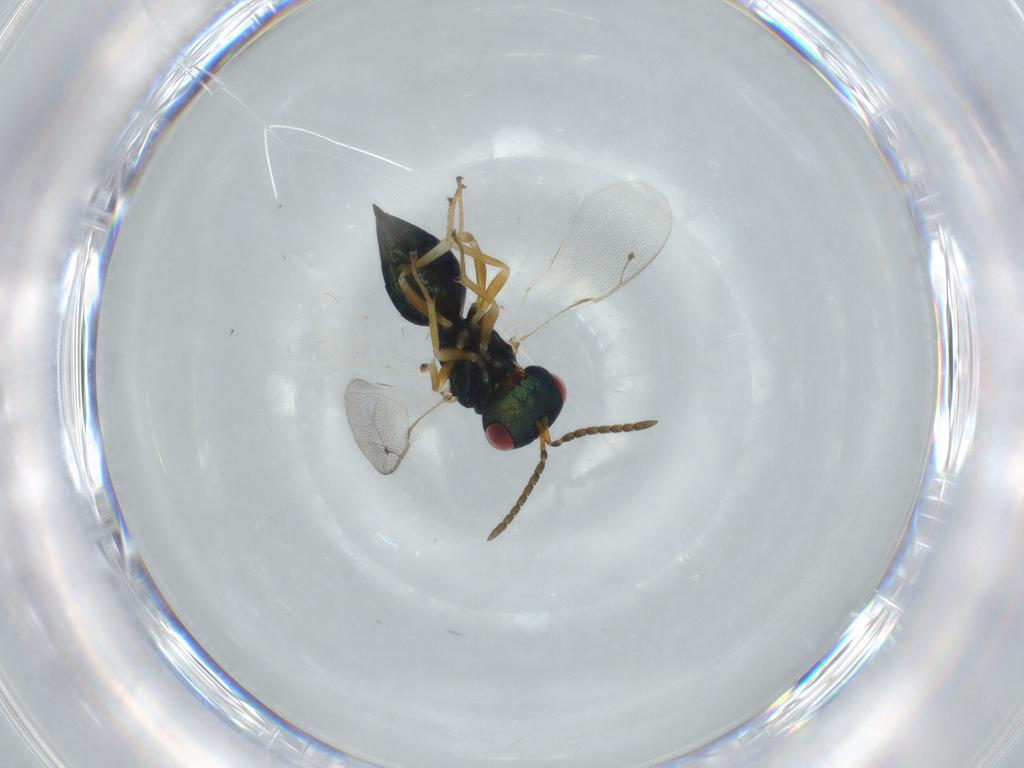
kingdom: Animalia
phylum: Arthropoda
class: Insecta
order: Hymenoptera
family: Pteromalidae
